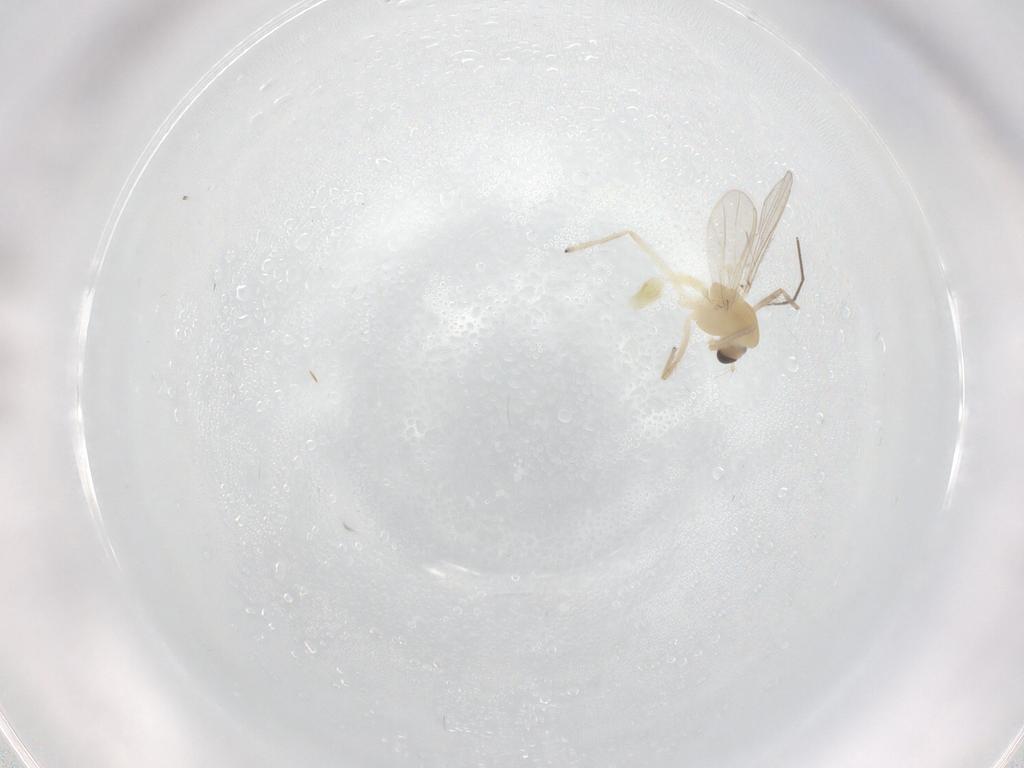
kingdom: Animalia
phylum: Arthropoda
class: Insecta
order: Diptera
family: Chironomidae
